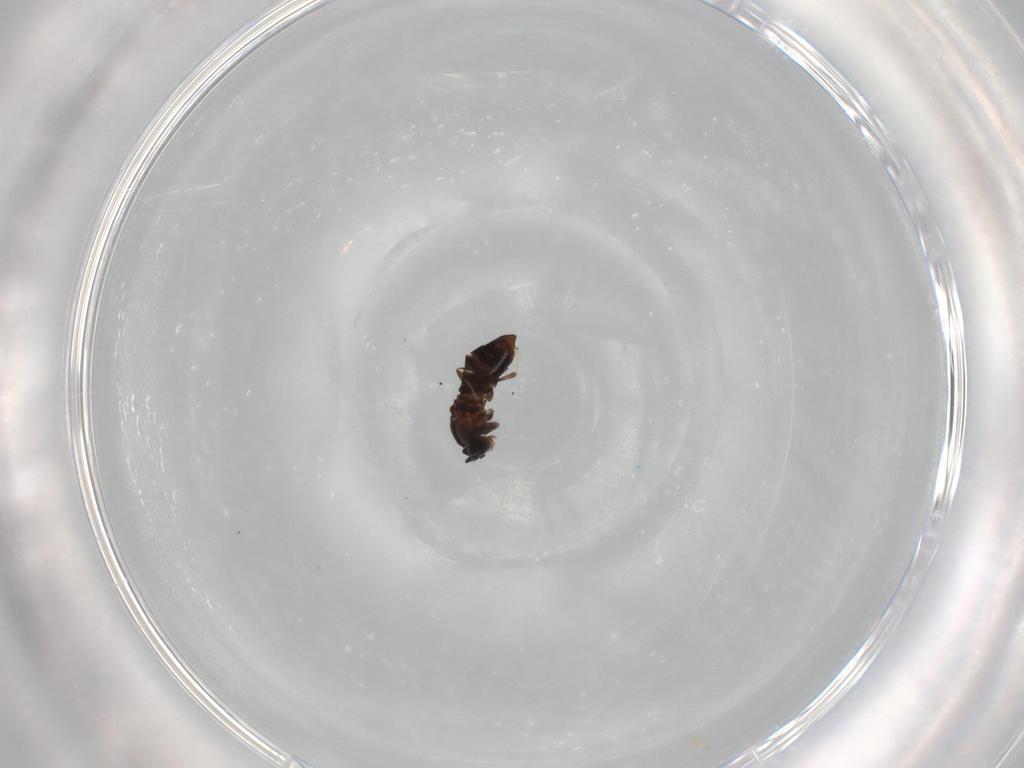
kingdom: Animalia
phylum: Arthropoda
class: Insecta
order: Diptera
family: Scatopsidae
